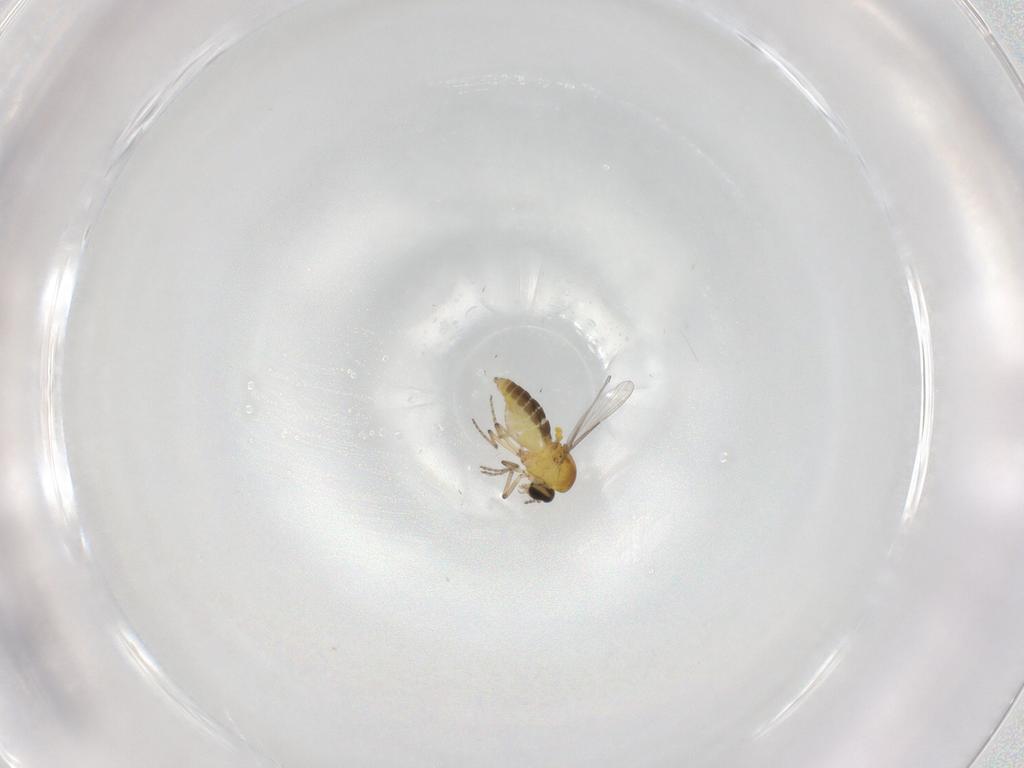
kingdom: Animalia
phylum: Arthropoda
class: Insecta
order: Diptera
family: Ceratopogonidae
